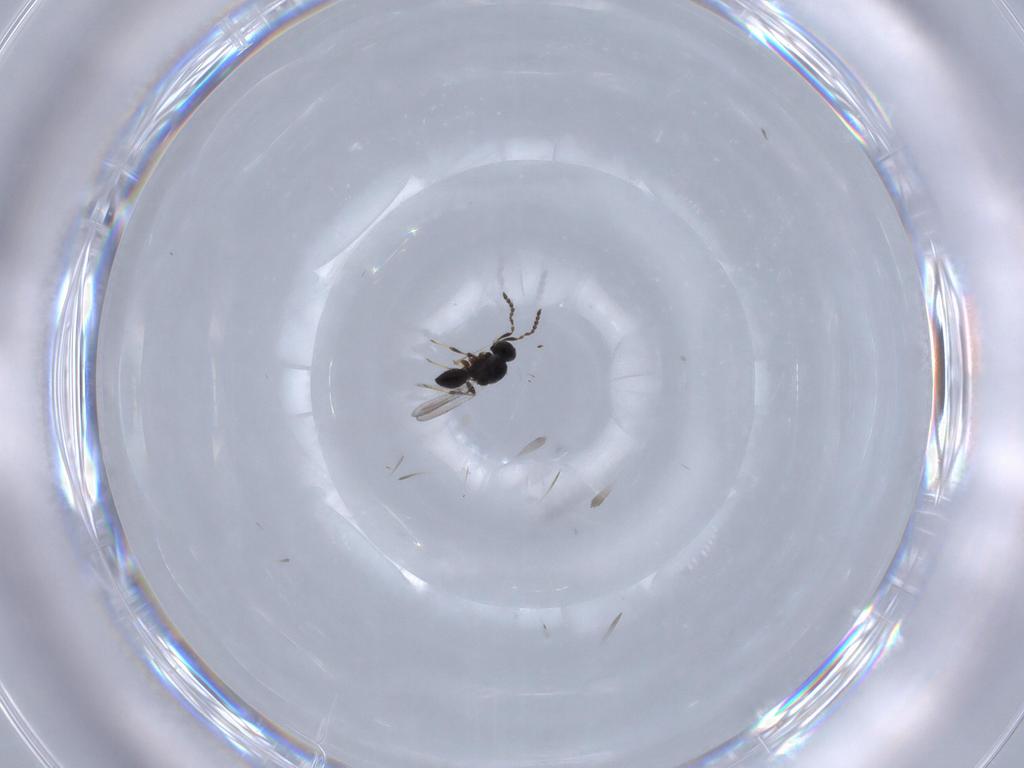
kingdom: Animalia
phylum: Arthropoda
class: Insecta
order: Hymenoptera
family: Platygastridae
